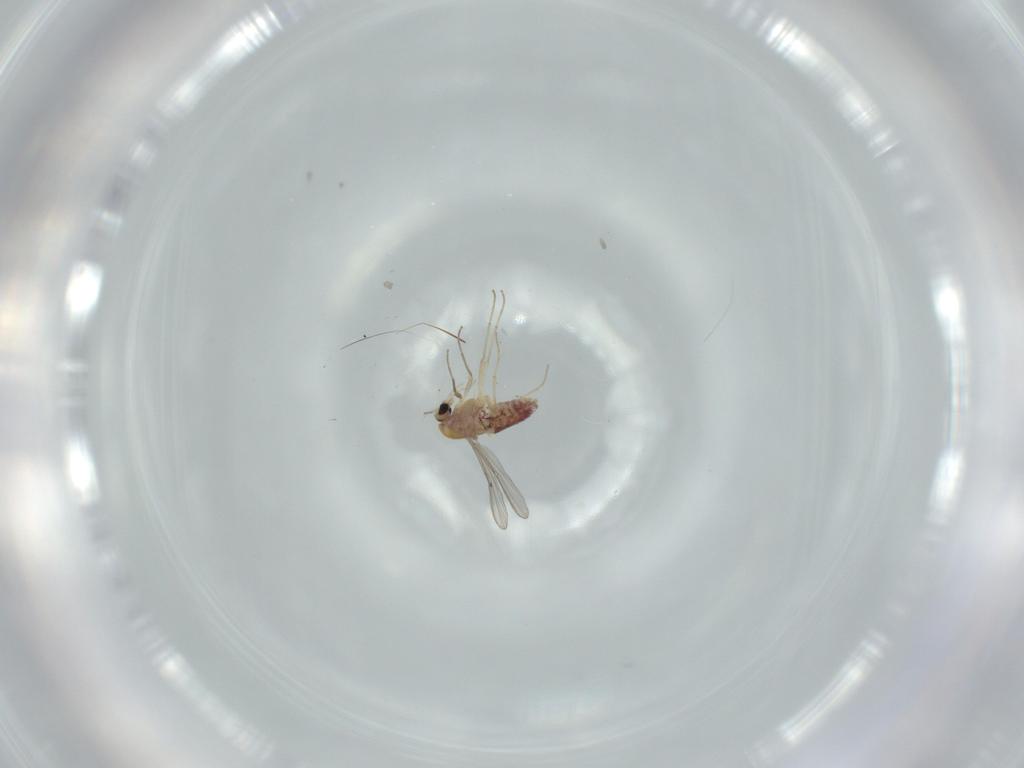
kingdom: Animalia
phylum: Arthropoda
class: Insecta
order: Diptera
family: Chironomidae
